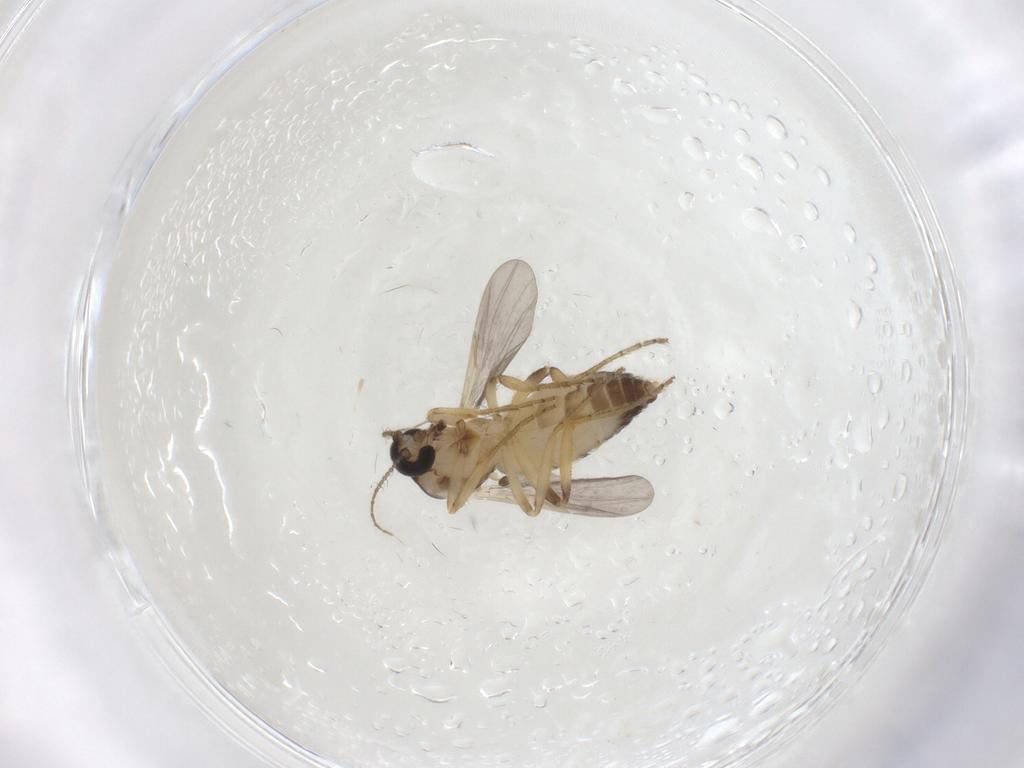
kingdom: Animalia
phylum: Arthropoda
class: Insecta
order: Diptera
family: Ceratopogonidae
